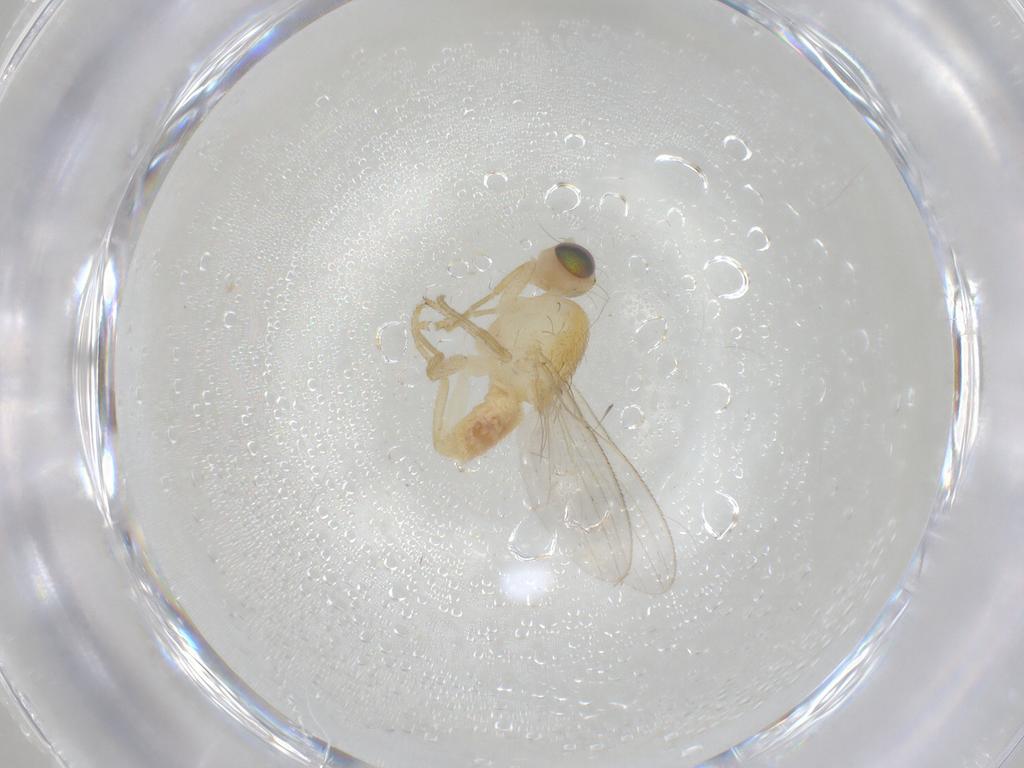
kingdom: Animalia
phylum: Arthropoda
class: Insecta
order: Diptera
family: Chyromyidae
